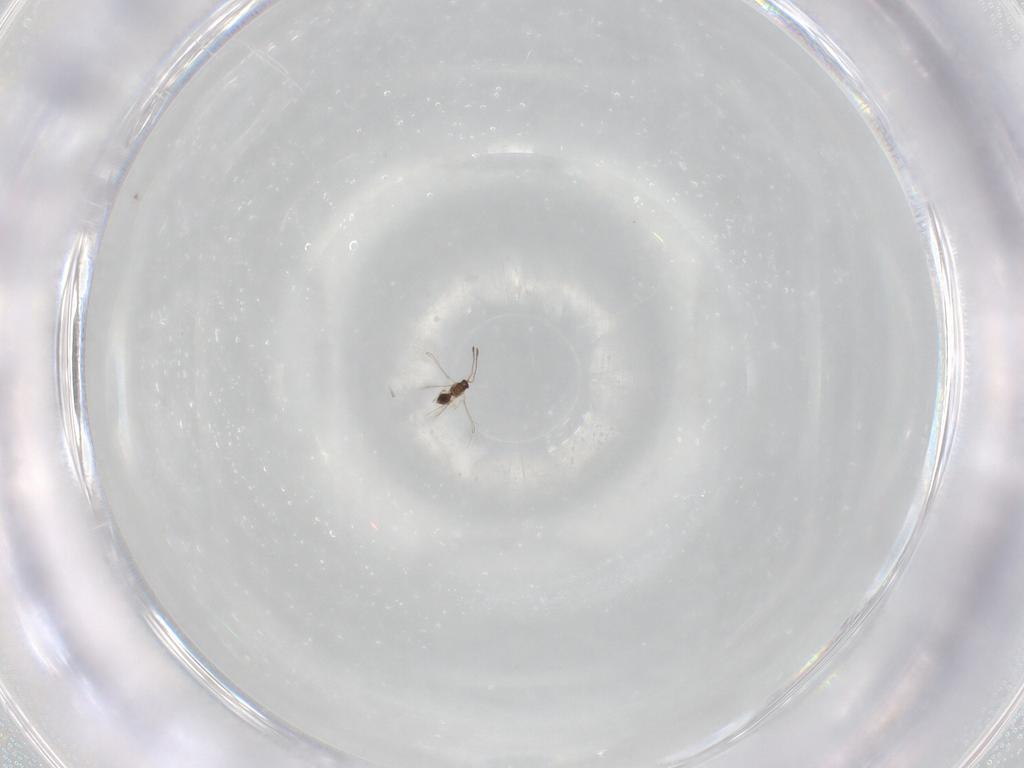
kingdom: Animalia
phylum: Arthropoda
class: Insecta
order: Hymenoptera
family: Mymaridae
